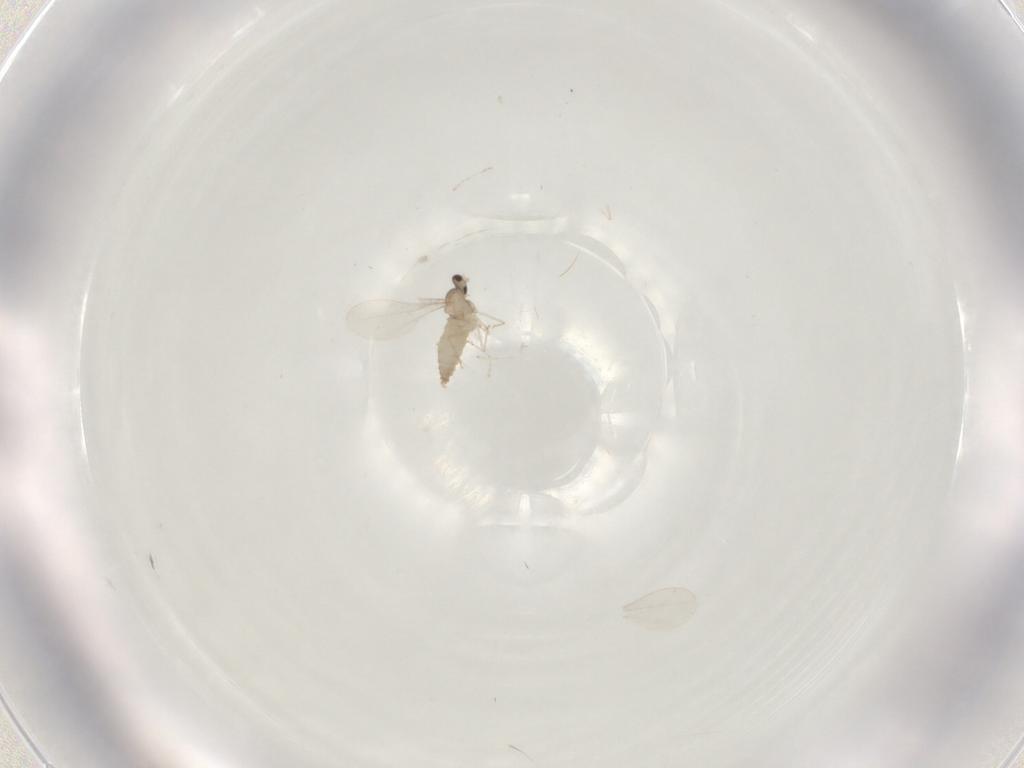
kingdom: Animalia
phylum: Arthropoda
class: Insecta
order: Diptera
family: Cecidomyiidae
